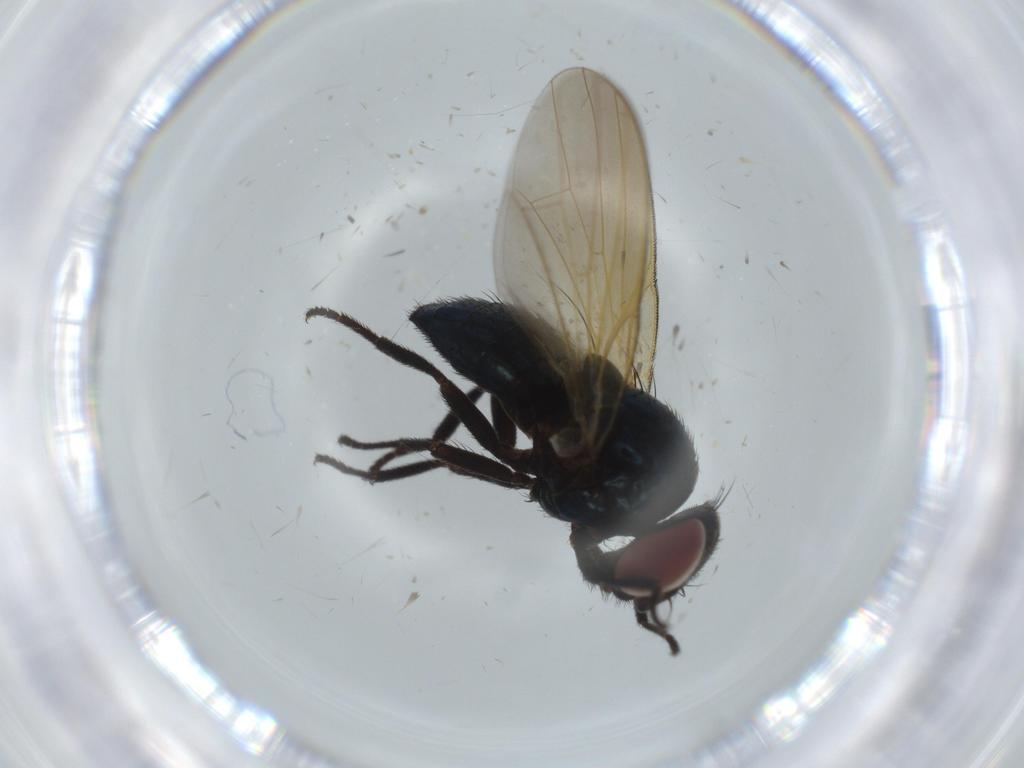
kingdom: Animalia
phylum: Arthropoda
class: Insecta
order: Diptera
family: Lonchaeidae
